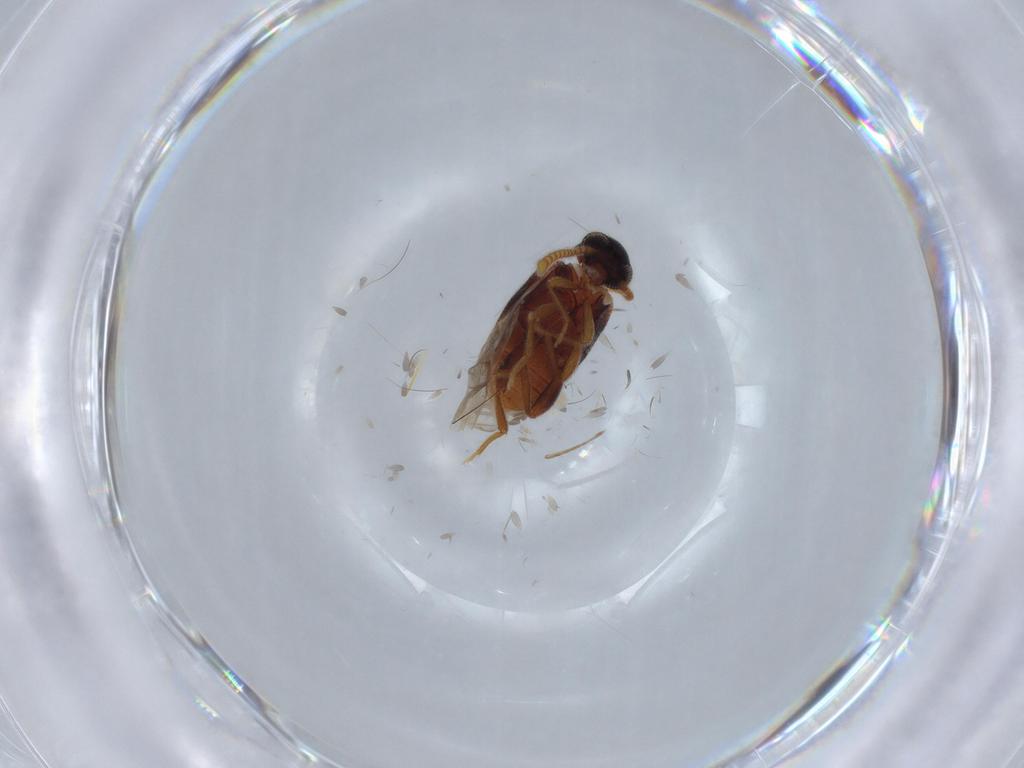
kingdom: Animalia
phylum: Arthropoda
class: Insecta
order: Coleoptera
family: Aderidae
